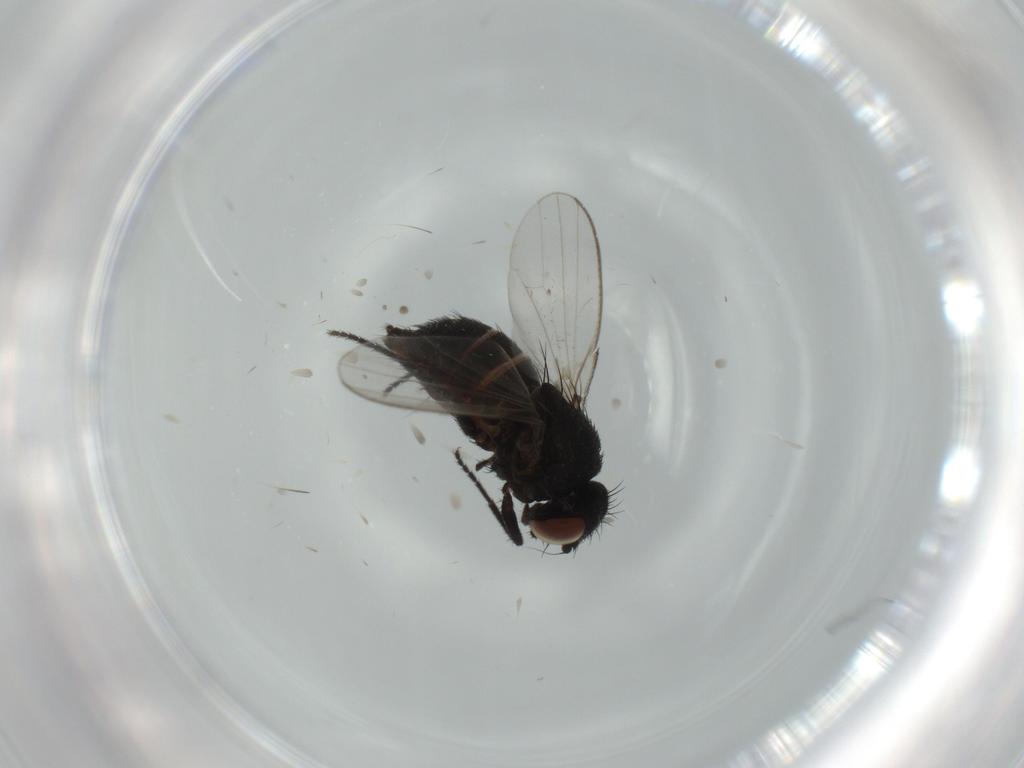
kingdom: Animalia
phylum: Arthropoda
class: Insecta
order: Diptera
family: Milichiidae
